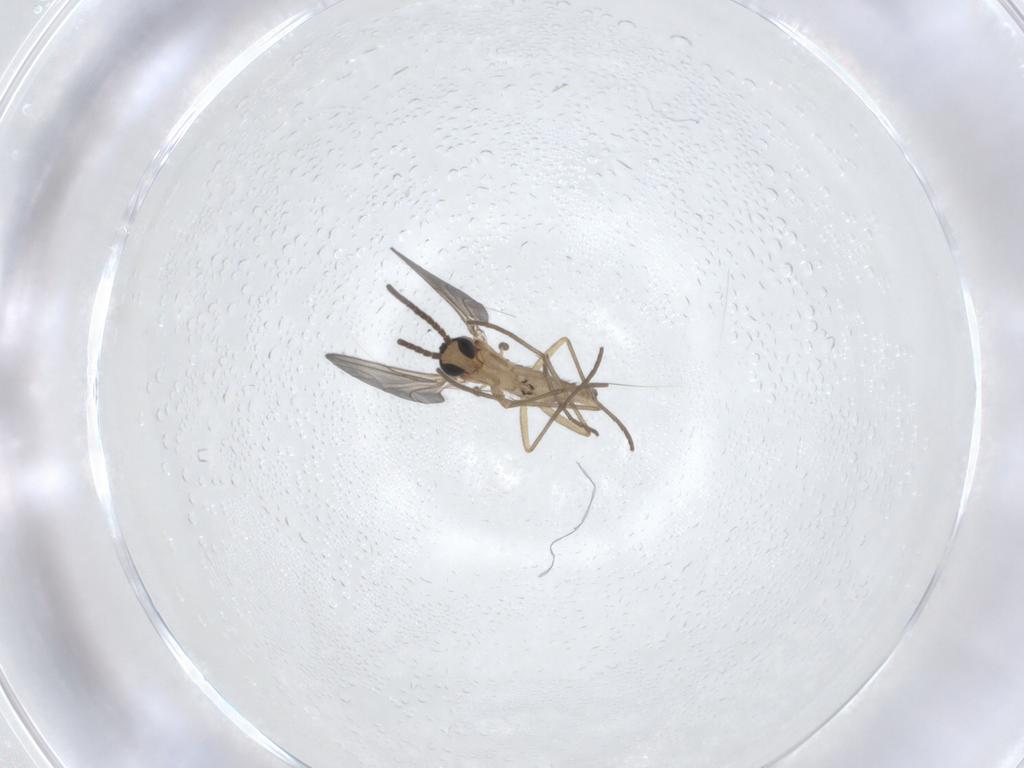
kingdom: Animalia
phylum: Arthropoda
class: Insecta
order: Diptera
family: Sciaridae
